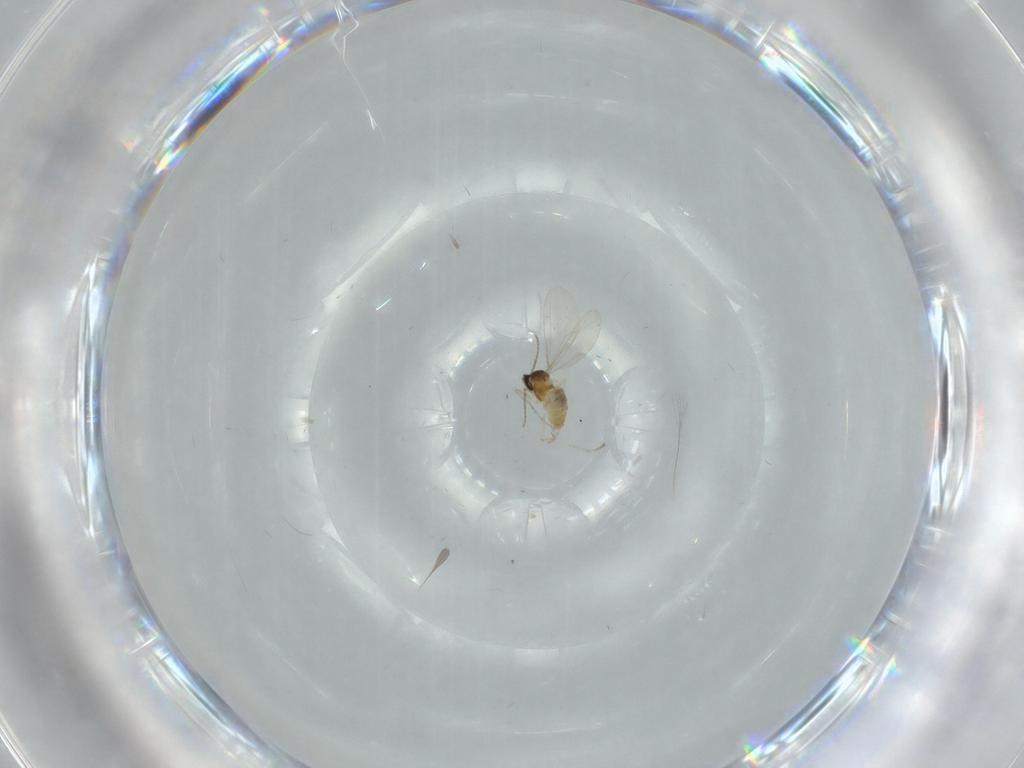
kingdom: Animalia
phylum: Arthropoda
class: Insecta
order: Diptera
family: Cecidomyiidae
